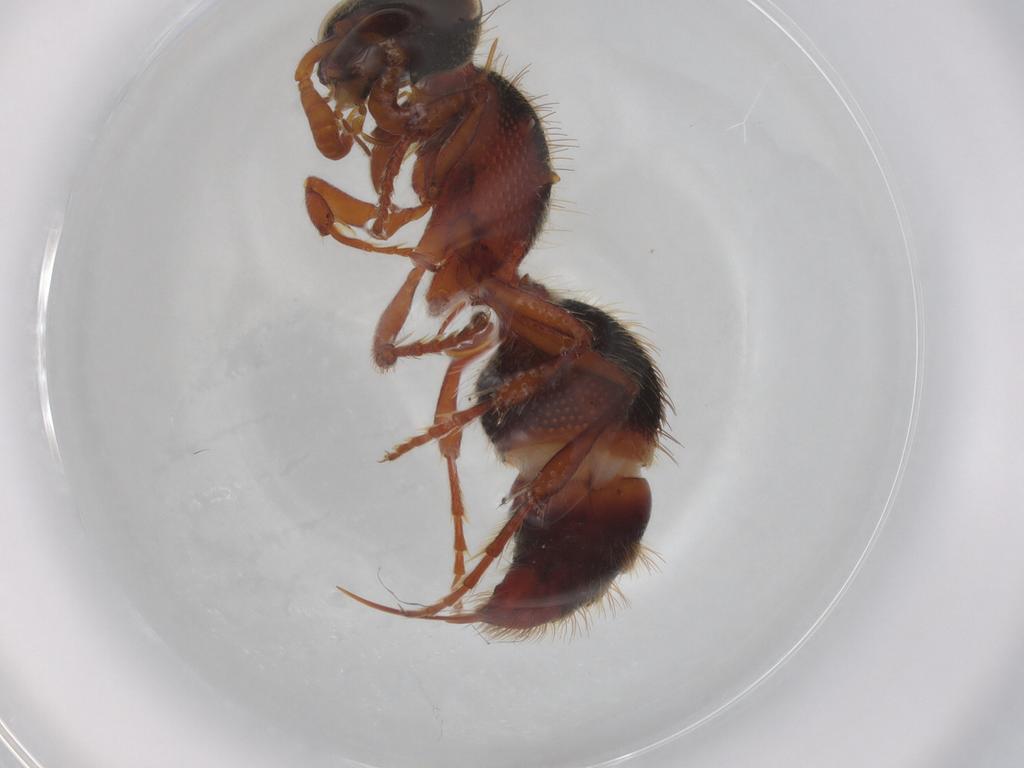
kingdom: Animalia
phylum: Arthropoda
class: Insecta
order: Hymenoptera
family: Formicidae
